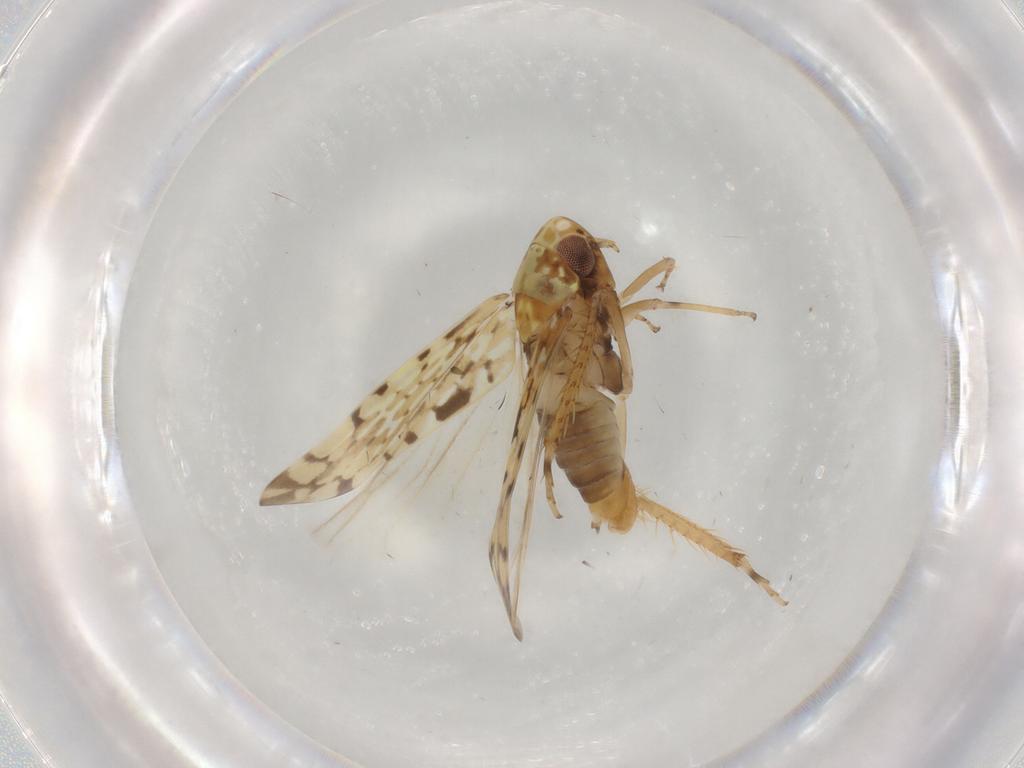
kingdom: Animalia
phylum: Arthropoda
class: Insecta
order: Hemiptera
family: Cicadellidae
